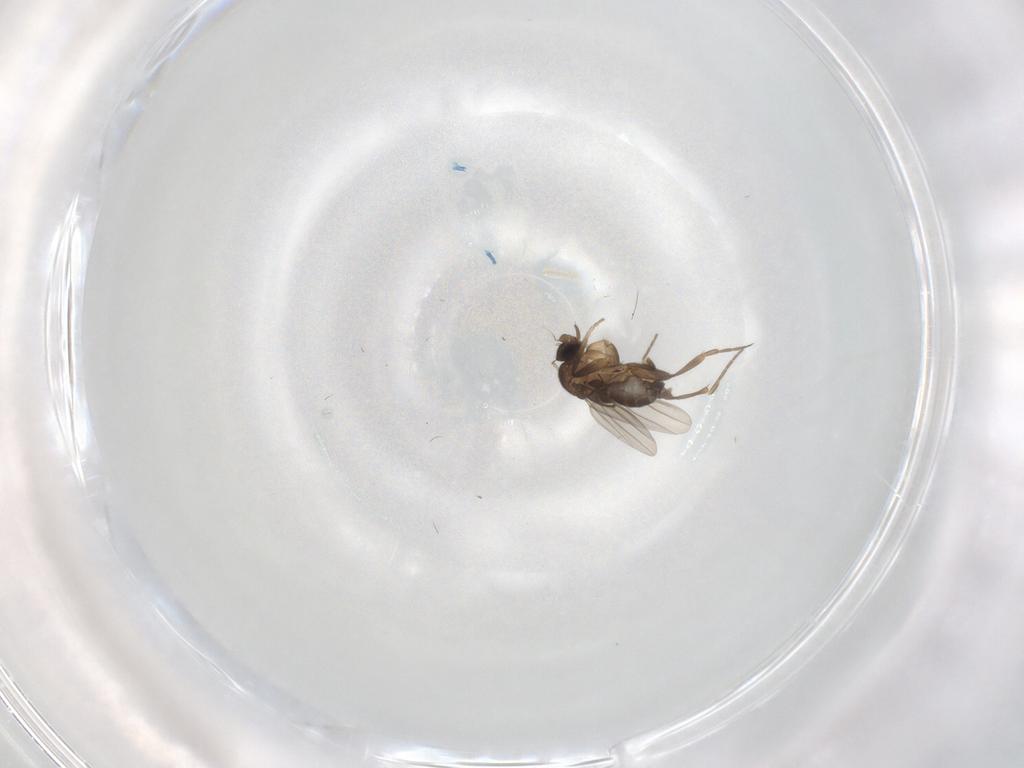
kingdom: Animalia
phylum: Arthropoda
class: Insecta
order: Diptera
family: Phoridae
